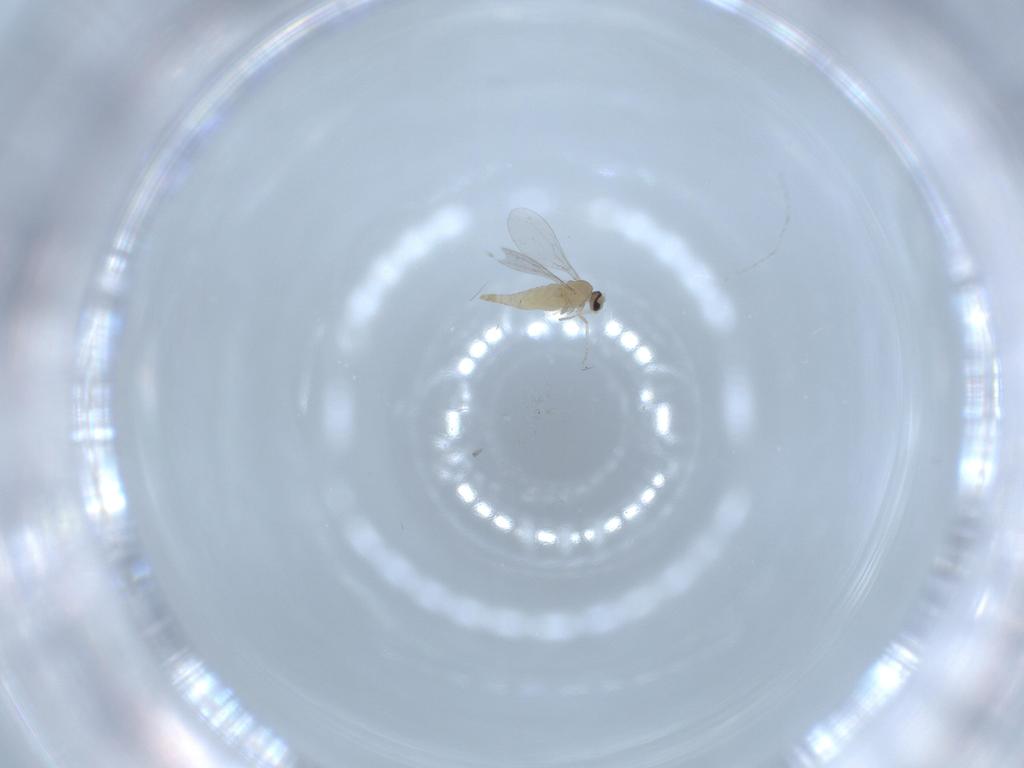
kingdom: Animalia
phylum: Arthropoda
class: Insecta
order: Diptera
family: Cecidomyiidae
